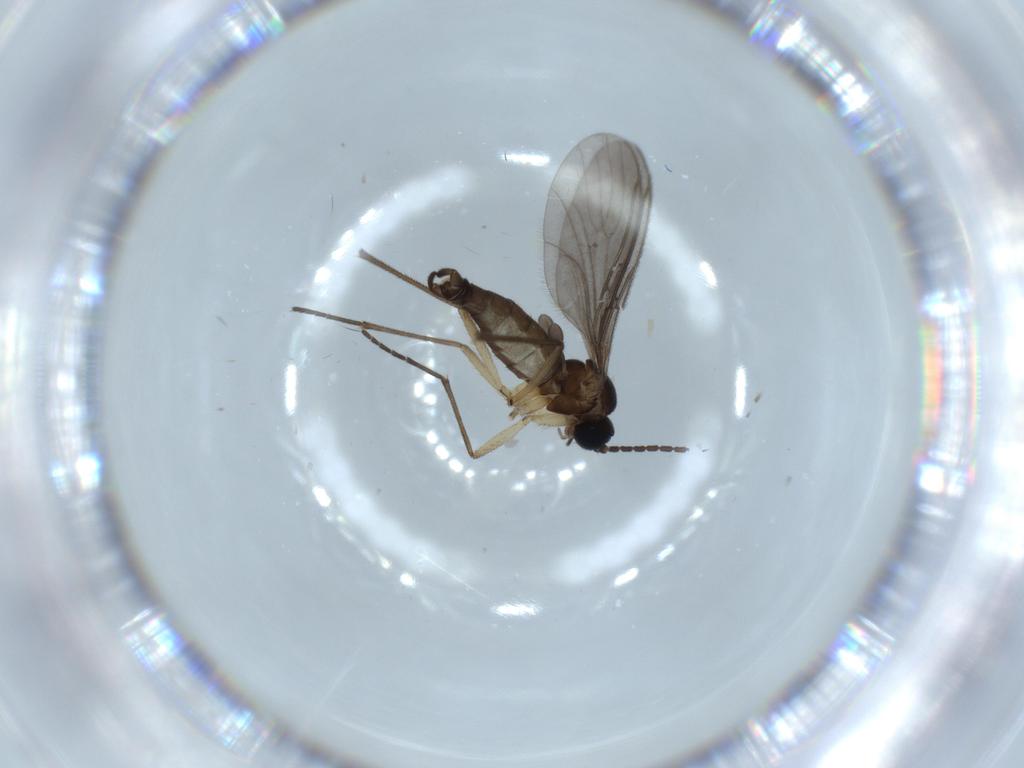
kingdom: Animalia
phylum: Arthropoda
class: Insecta
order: Diptera
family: Sciaridae
